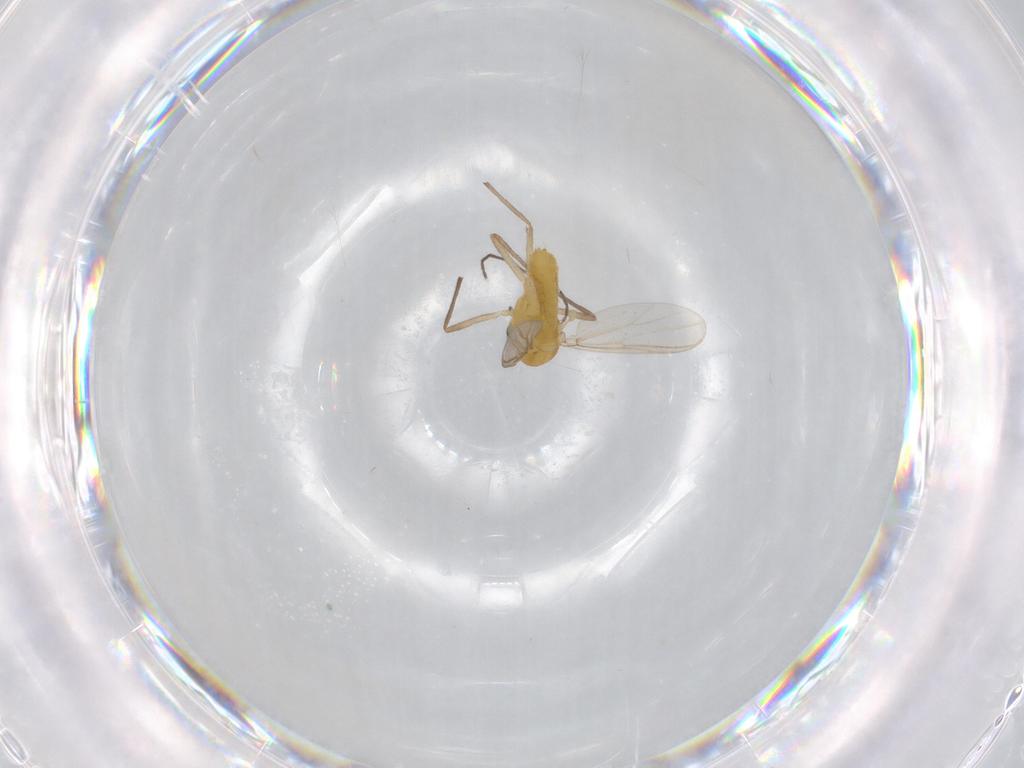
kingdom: Animalia
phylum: Arthropoda
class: Insecta
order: Diptera
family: Chironomidae
